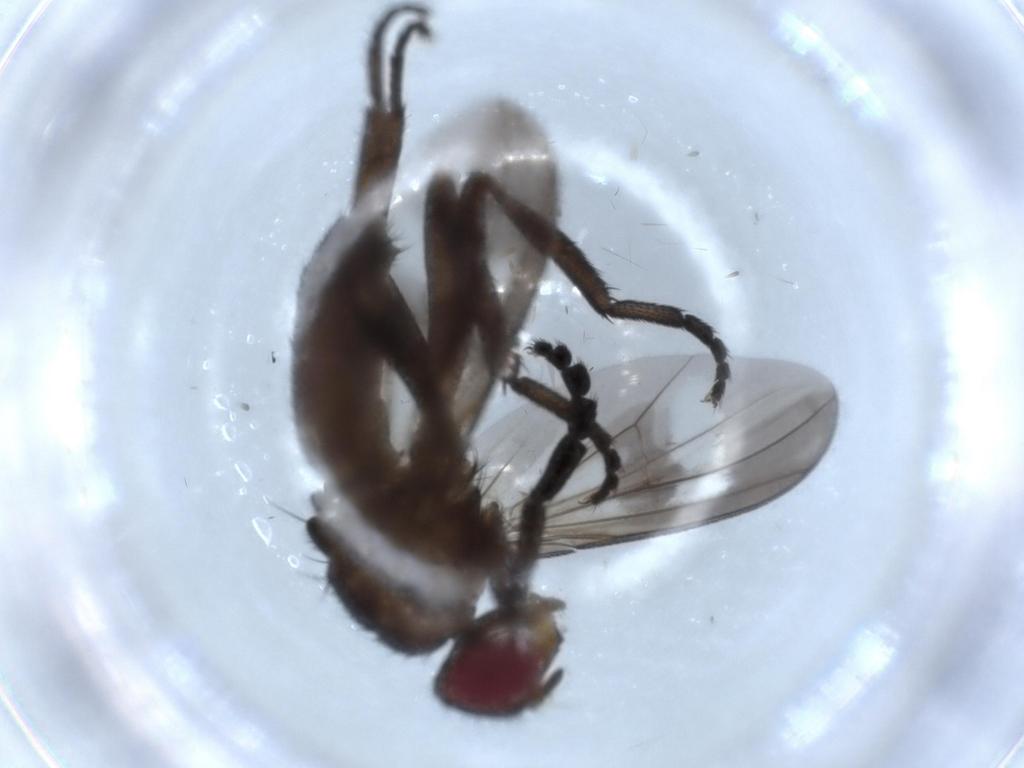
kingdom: Animalia
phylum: Arthropoda
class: Insecta
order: Diptera
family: Calliphoridae
